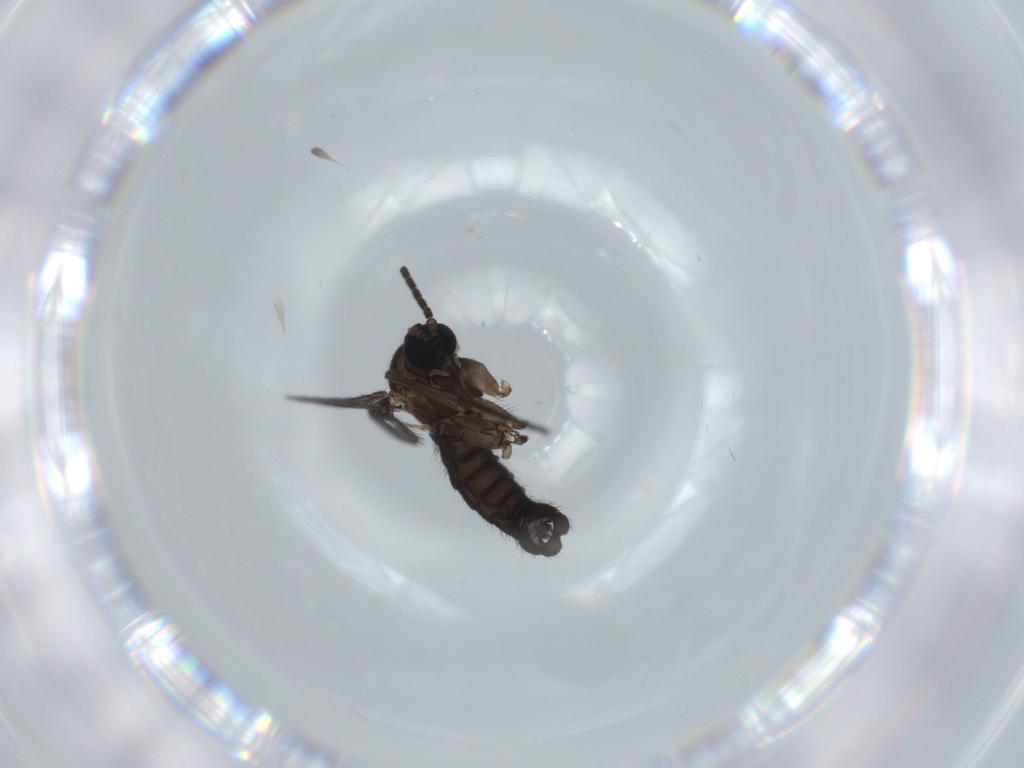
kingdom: Animalia
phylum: Arthropoda
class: Insecta
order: Diptera
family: Sciaridae
